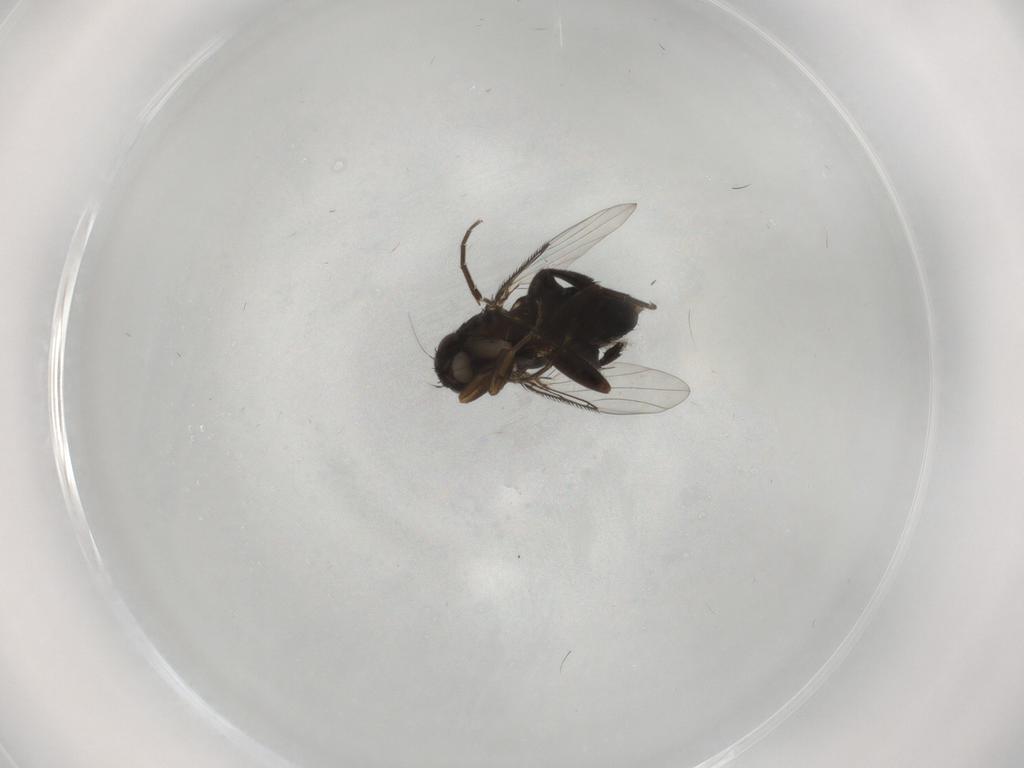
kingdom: Animalia
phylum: Arthropoda
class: Insecta
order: Diptera
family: Phoridae
